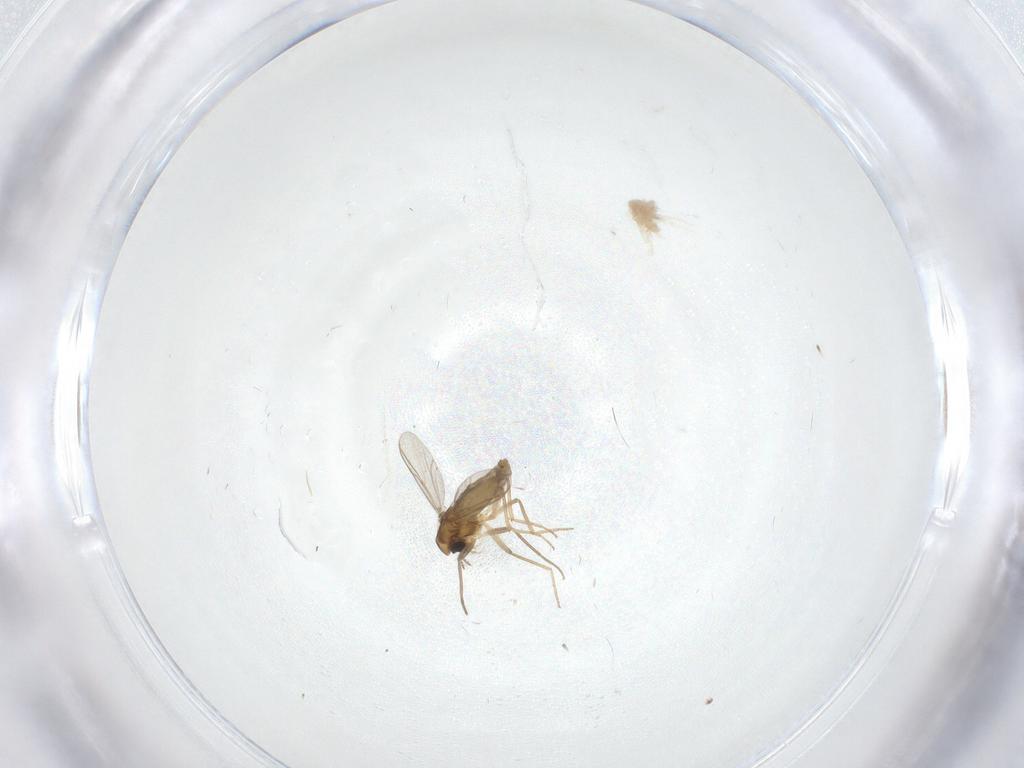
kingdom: Animalia
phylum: Arthropoda
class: Insecta
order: Diptera
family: Chironomidae
